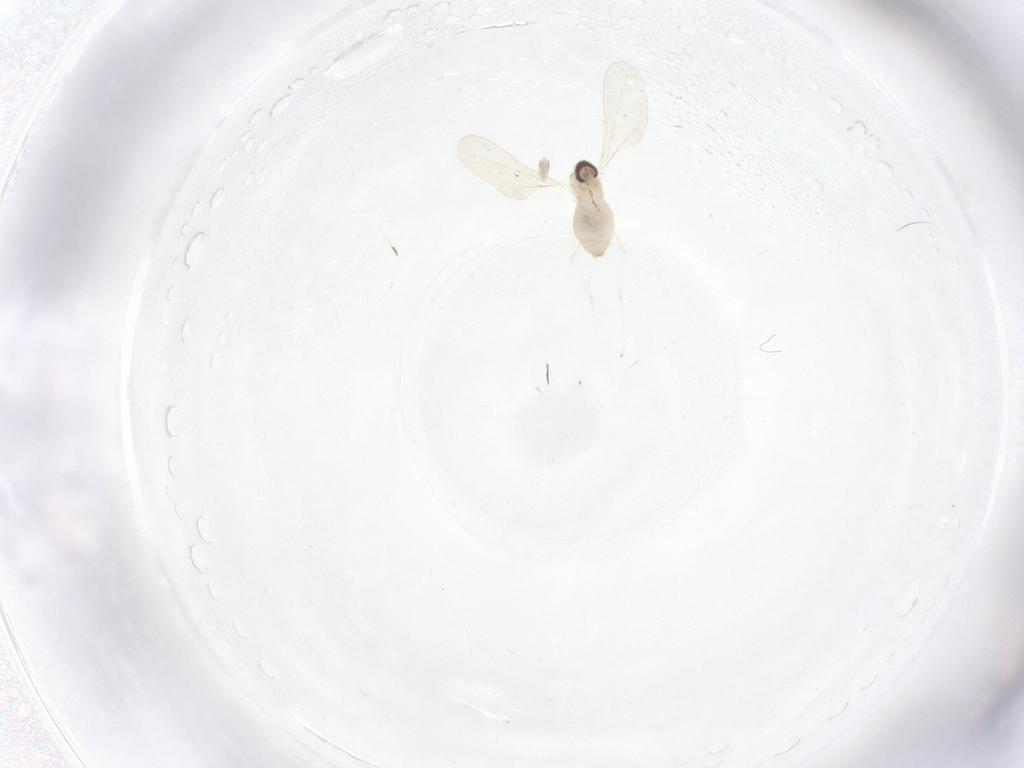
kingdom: Animalia
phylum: Arthropoda
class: Insecta
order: Diptera
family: Cecidomyiidae
